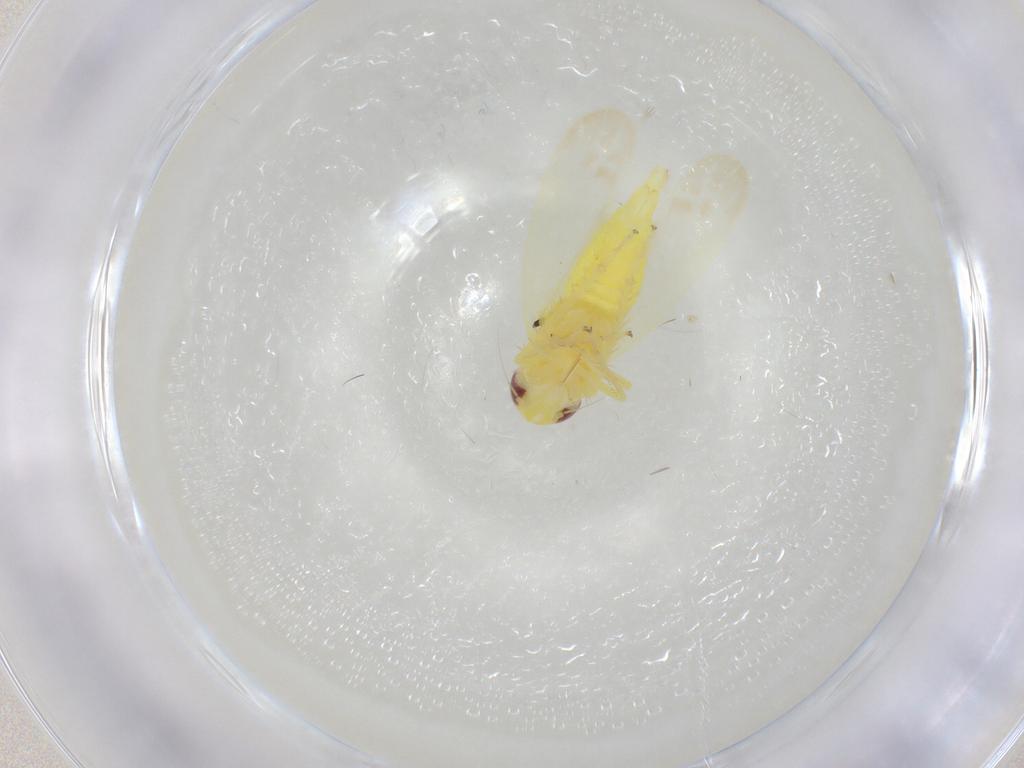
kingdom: Animalia
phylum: Arthropoda
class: Insecta
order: Hemiptera
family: Cicadellidae
